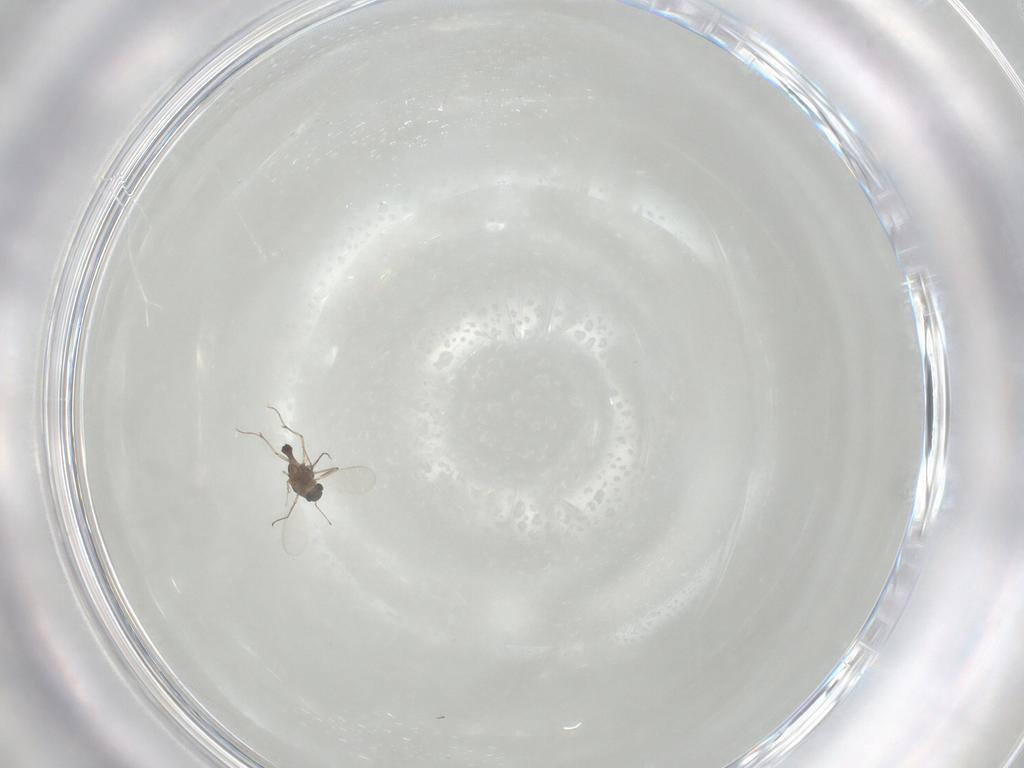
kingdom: Animalia
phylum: Arthropoda
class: Insecta
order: Diptera
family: Chironomidae
